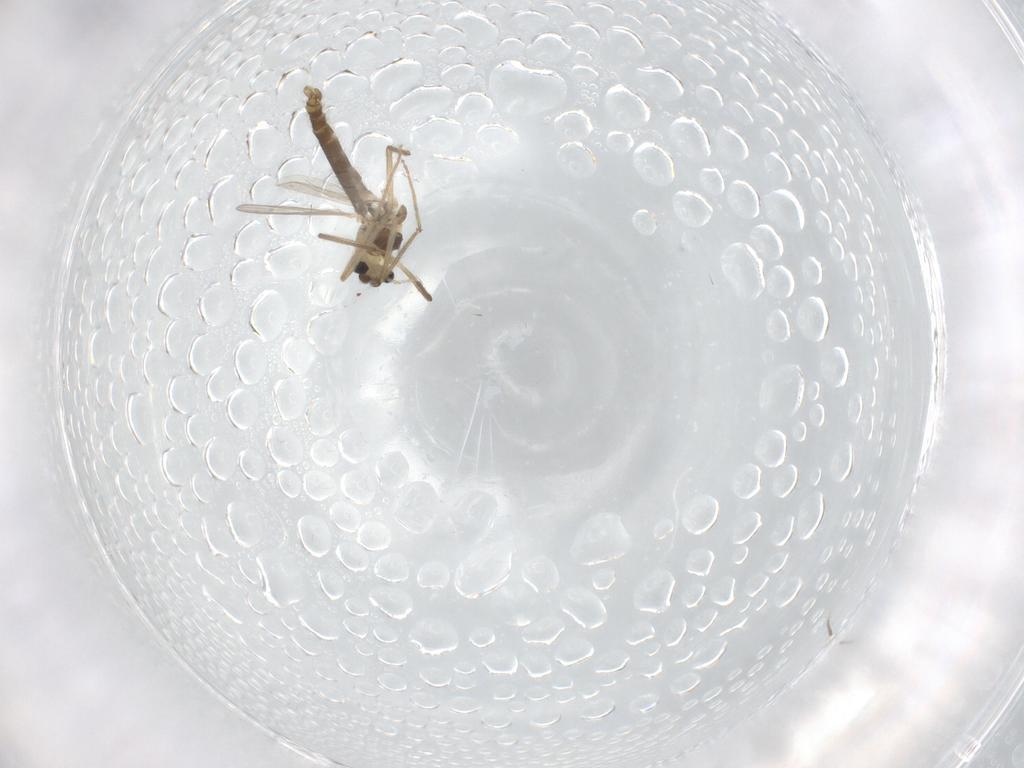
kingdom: Animalia
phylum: Arthropoda
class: Insecta
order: Diptera
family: Chironomidae
